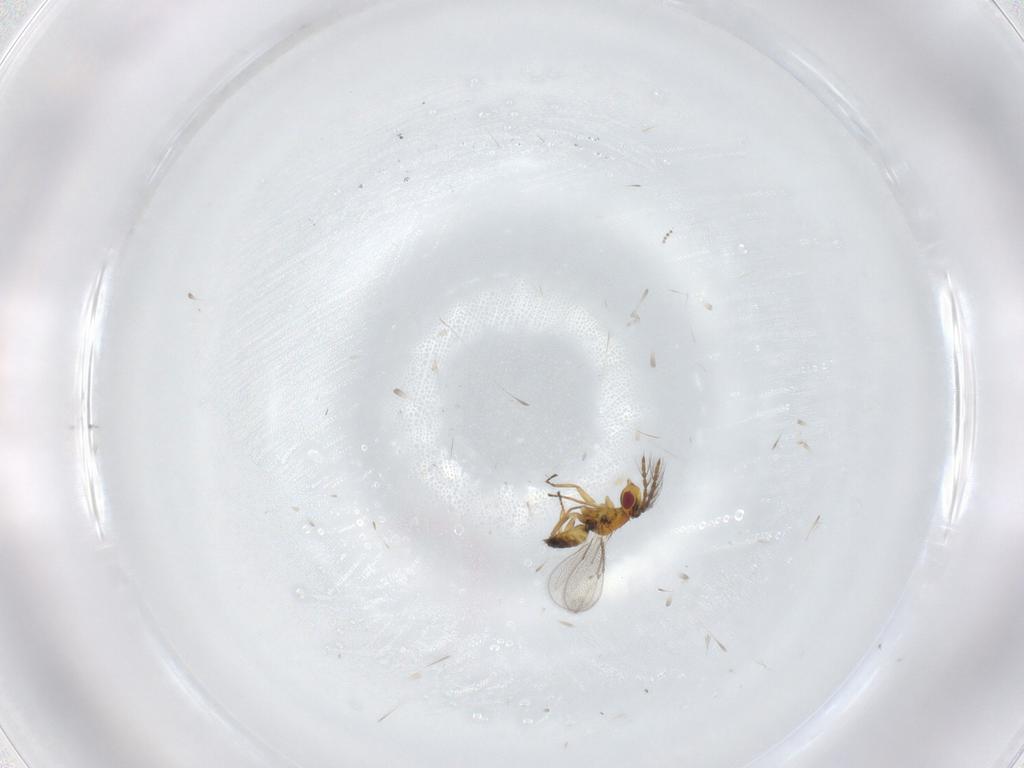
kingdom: Animalia
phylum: Arthropoda
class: Insecta
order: Hymenoptera
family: Eulophidae
